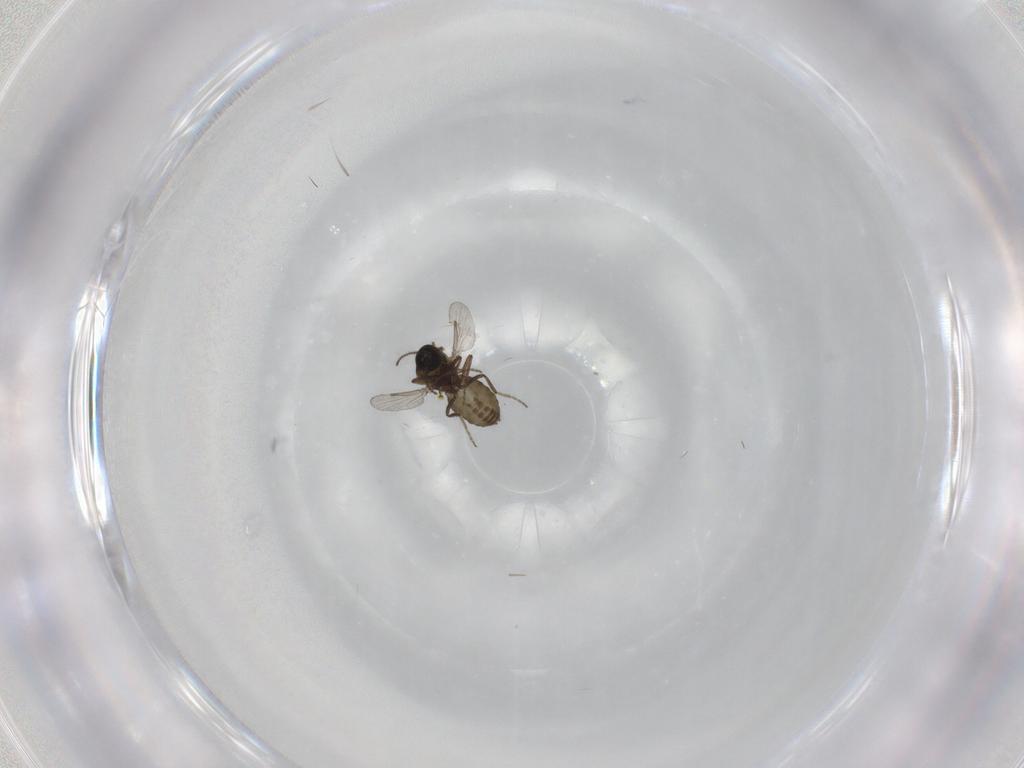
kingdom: Animalia
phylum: Arthropoda
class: Insecta
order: Diptera
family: Ceratopogonidae
